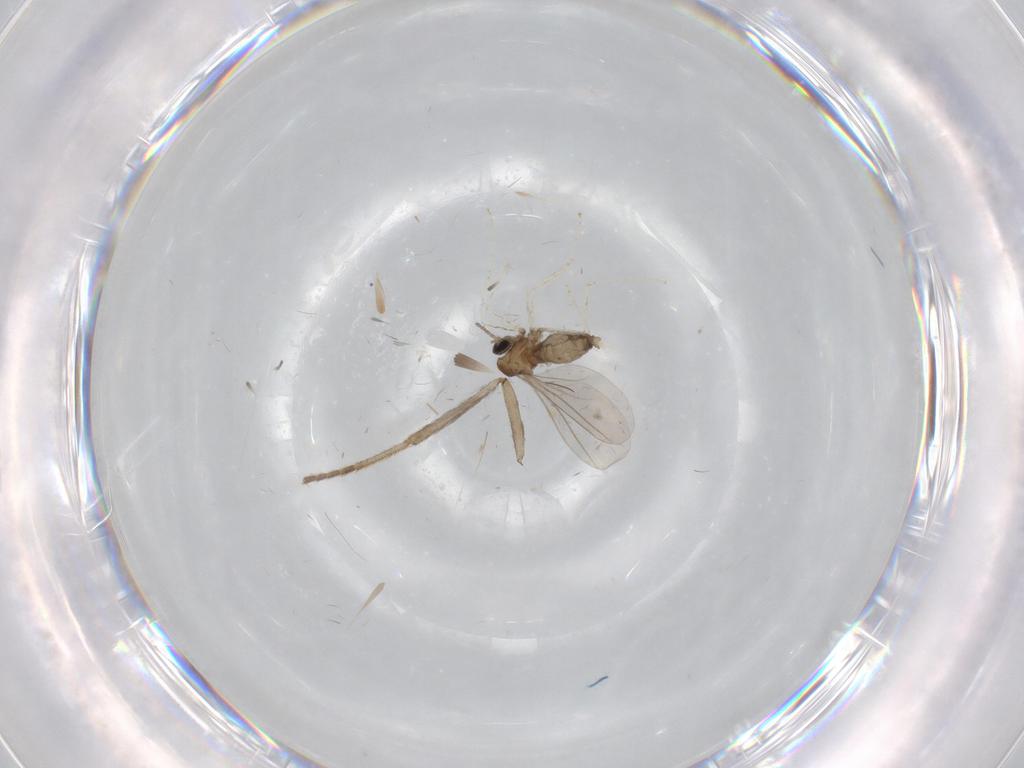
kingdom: Animalia
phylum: Arthropoda
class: Insecta
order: Diptera
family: Cecidomyiidae
